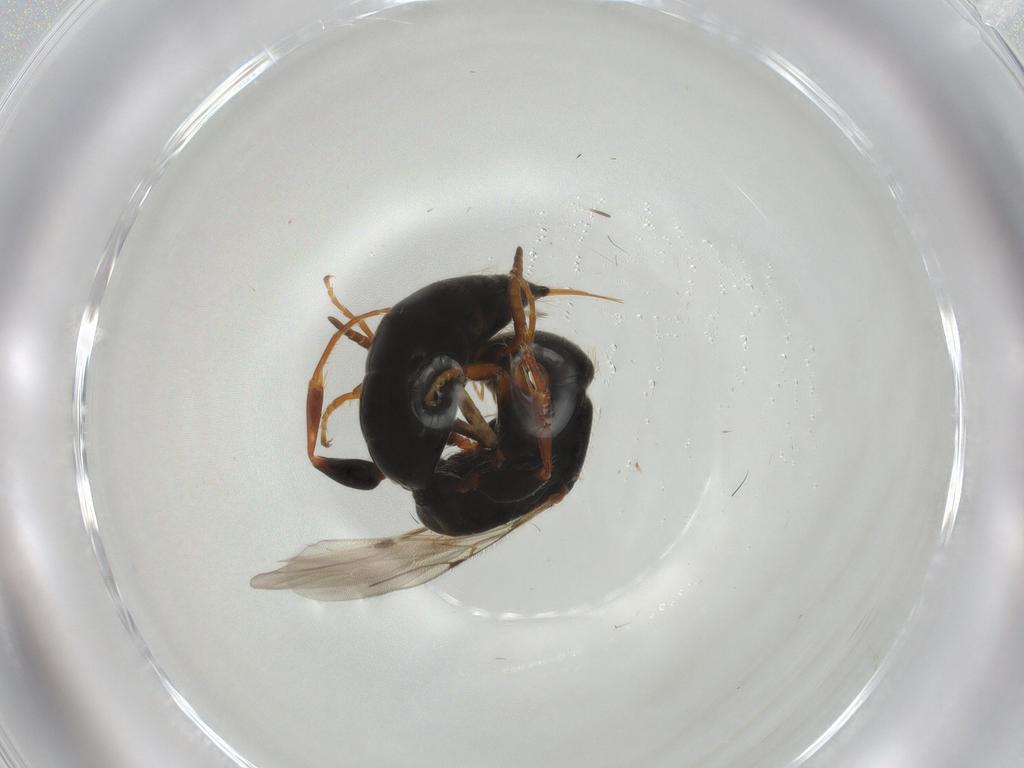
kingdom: Animalia
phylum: Arthropoda
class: Insecta
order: Hymenoptera
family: Bethylidae
